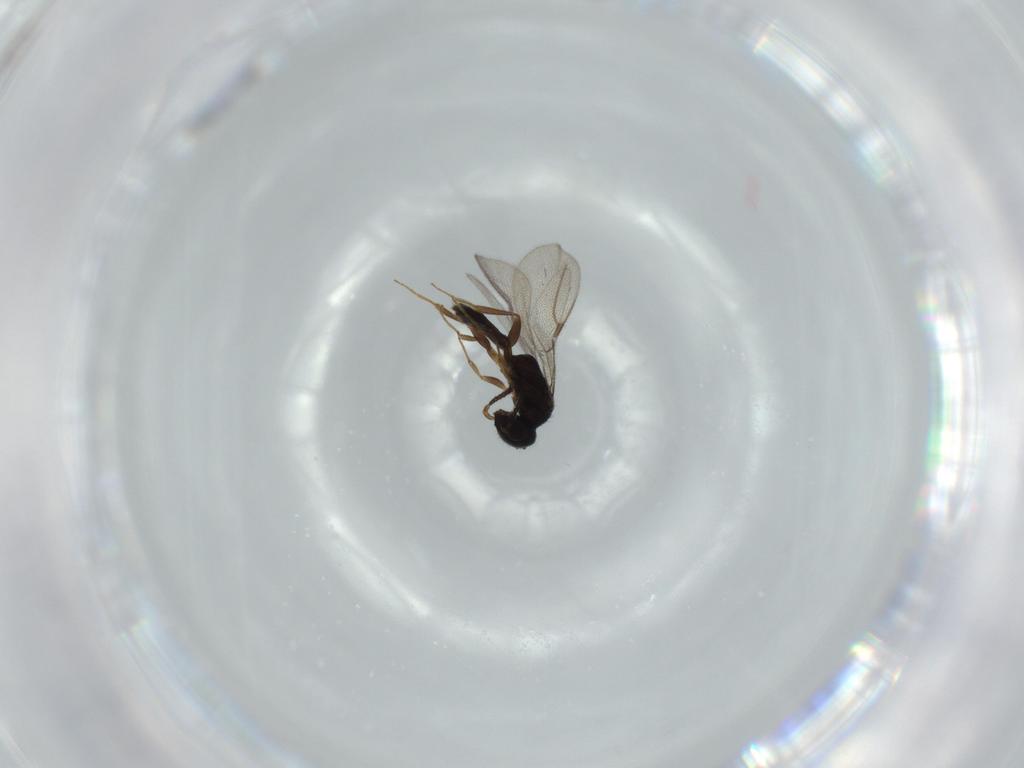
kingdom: Animalia
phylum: Arthropoda
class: Insecta
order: Hymenoptera
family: Bethylidae
